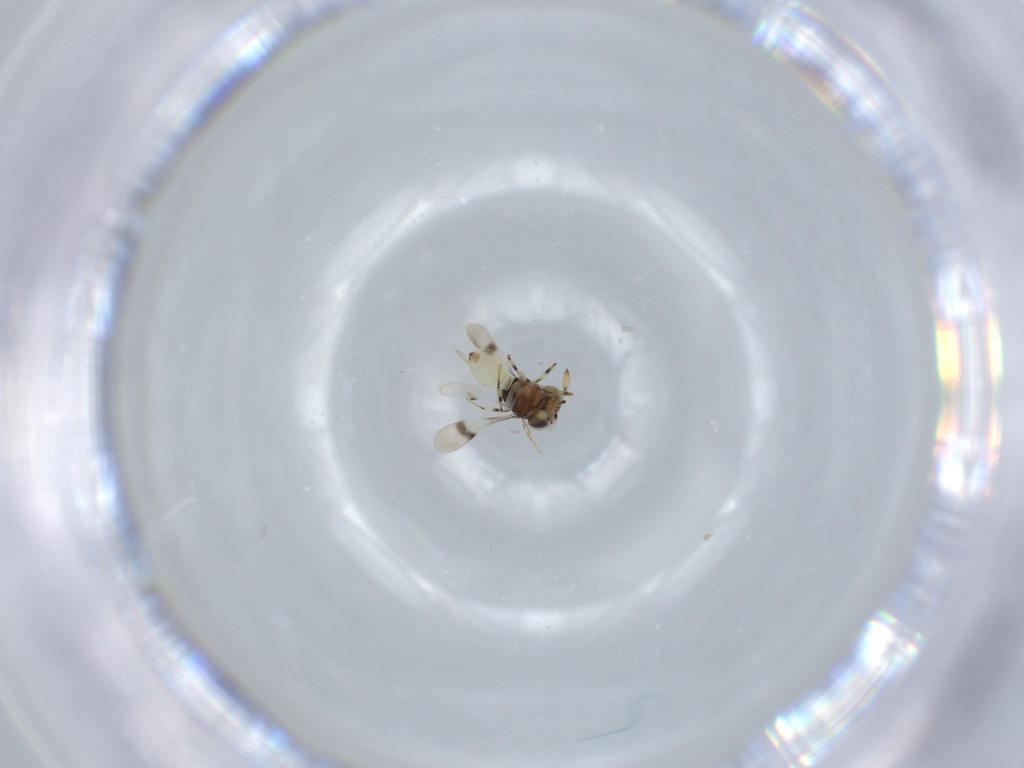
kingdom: Animalia
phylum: Arthropoda
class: Insecta
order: Hymenoptera
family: Scelionidae
